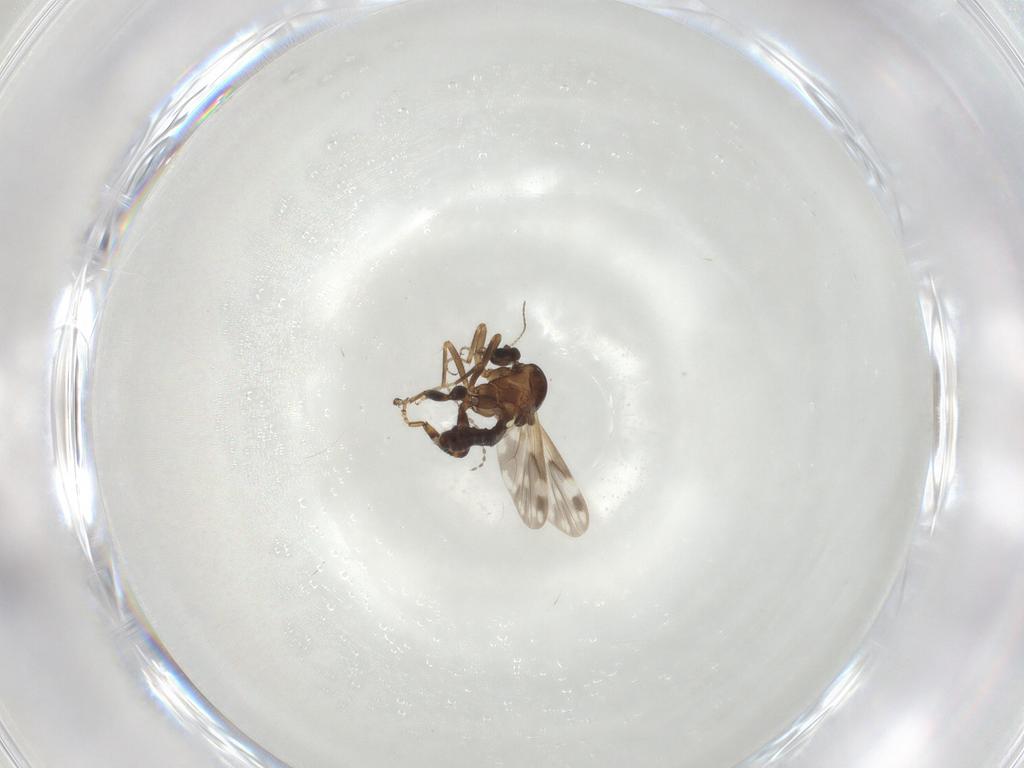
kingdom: Animalia
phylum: Arthropoda
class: Insecta
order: Diptera
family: Ceratopogonidae
